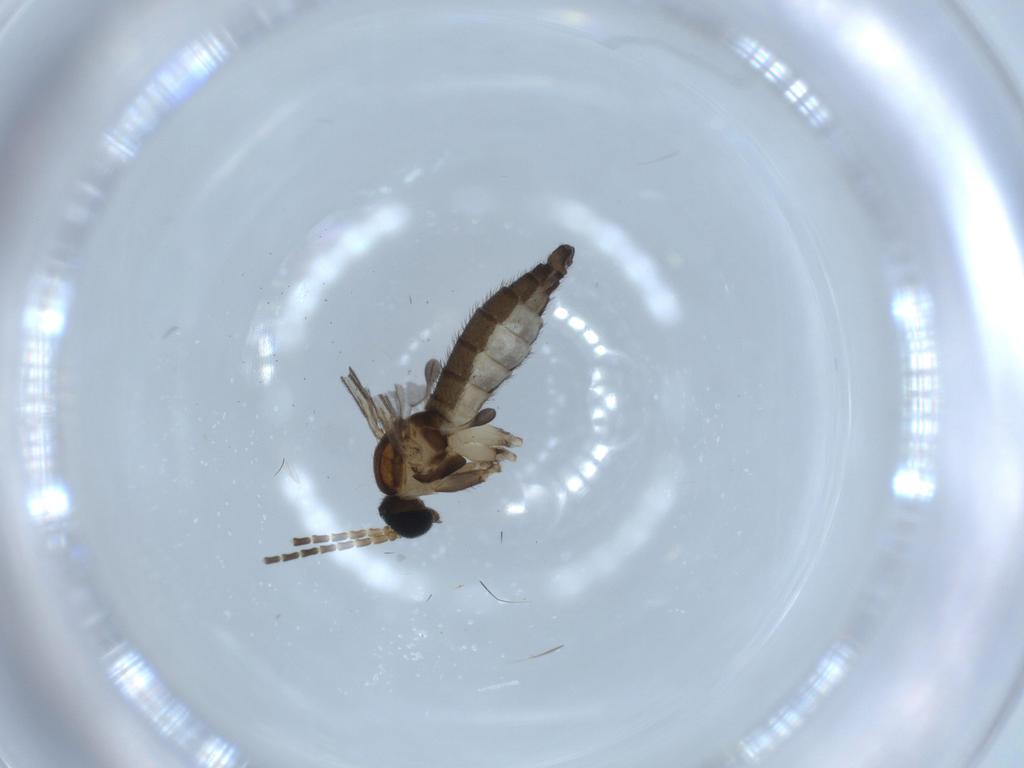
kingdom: Animalia
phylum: Arthropoda
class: Insecta
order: Diptera
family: Sciaridae
